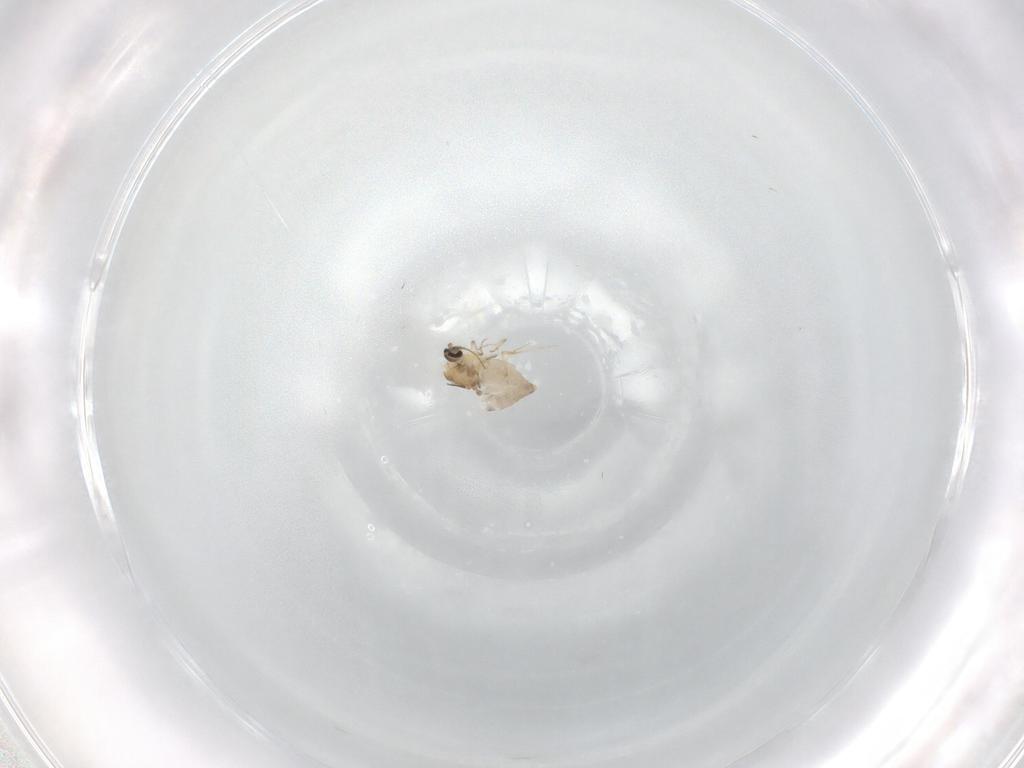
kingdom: Animalia
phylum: Arthropoda
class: Insecta
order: Diptera
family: Ceratopogonidae
